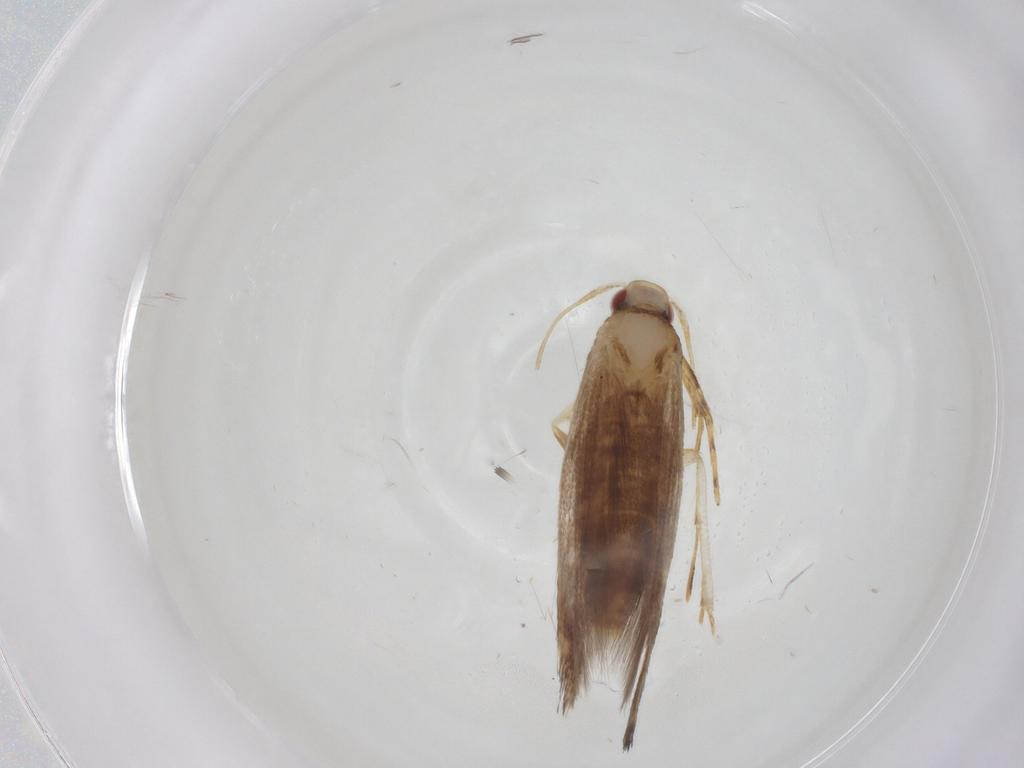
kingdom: Animalia
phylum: Arthropoda
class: Insecta
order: Lepidoptera
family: Cosmopterigidae
